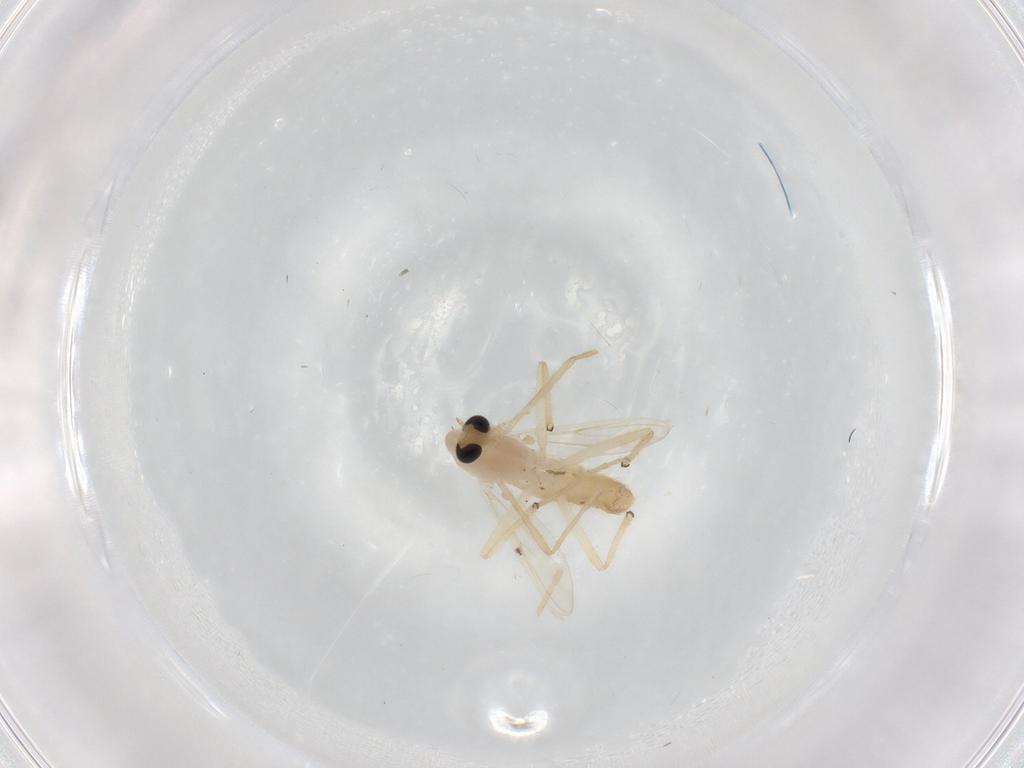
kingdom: Animalia
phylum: Arthropoda
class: Insecta
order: Diptera
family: Chironomidae
